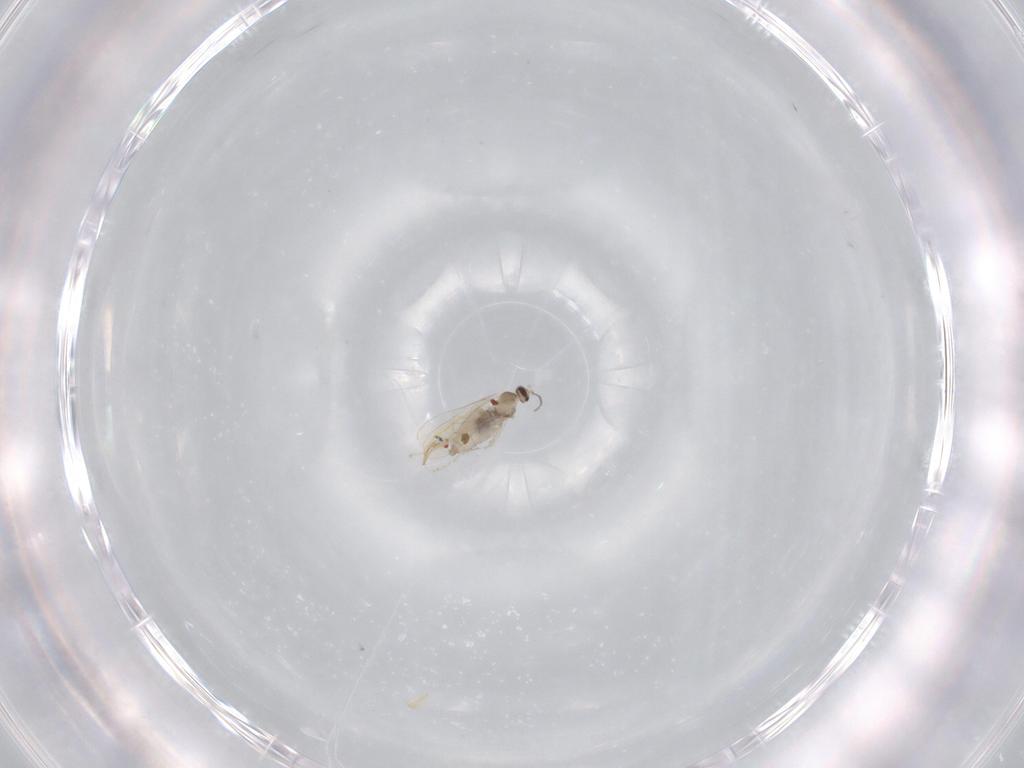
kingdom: Animalia
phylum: Arthropoda
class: Insecta
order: Diptera
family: Cecidomyiidae
